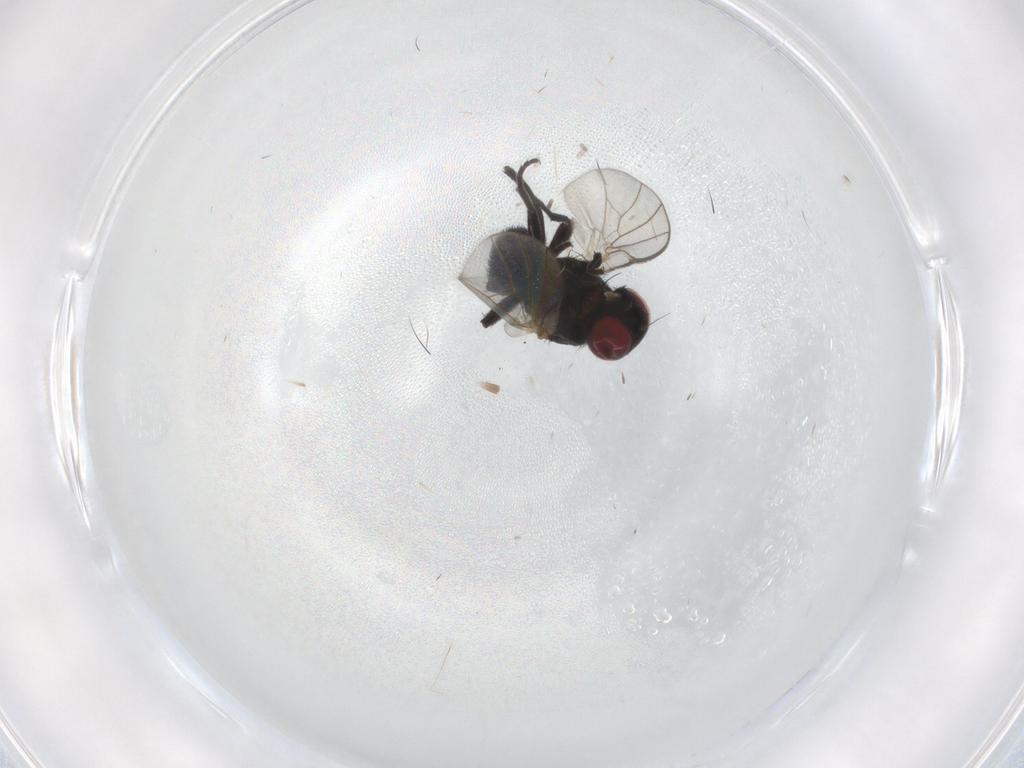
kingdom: Animalia
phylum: Arthropoda
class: Insecta
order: Diptera
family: Agromyzidae
